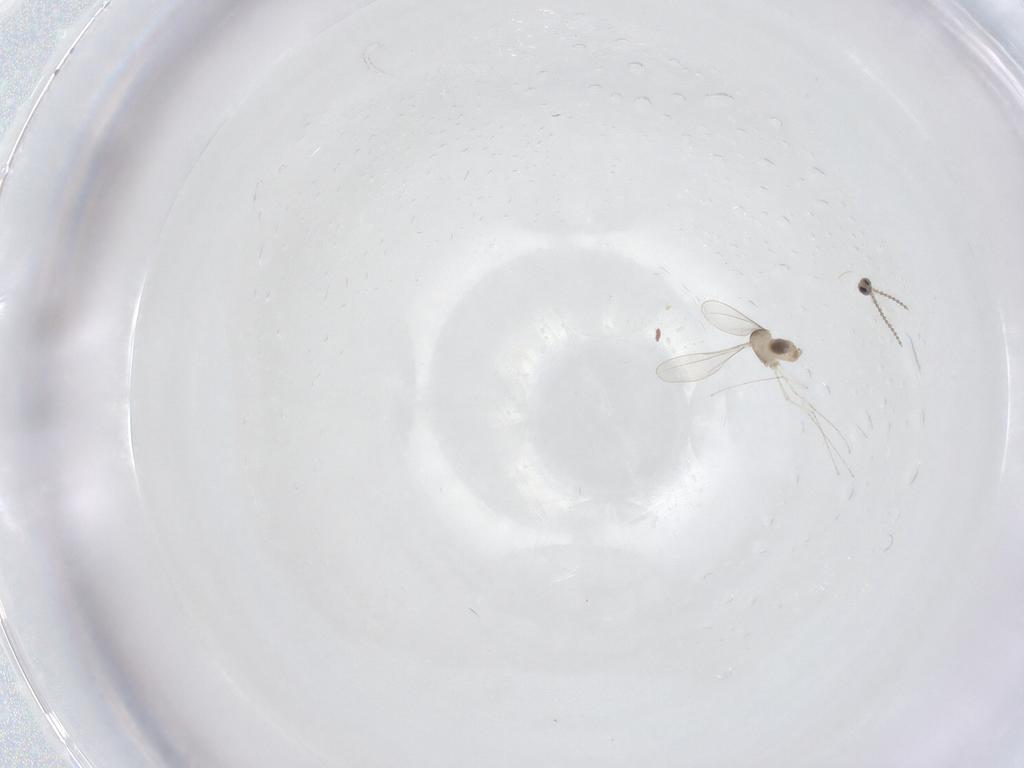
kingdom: Animalia
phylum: Arthropoda
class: Insecta
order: Diptera
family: Cecidomyiidae
